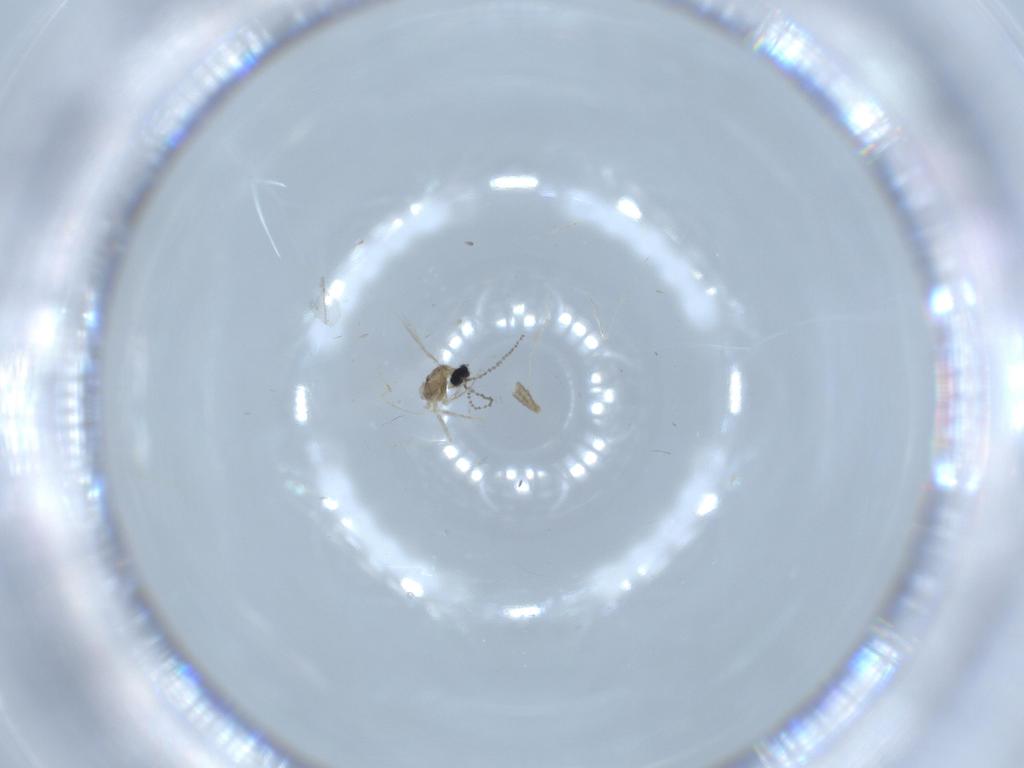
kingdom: Animalia
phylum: Arthropoda
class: Insecta
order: Diptera
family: Cecidomyiidae
